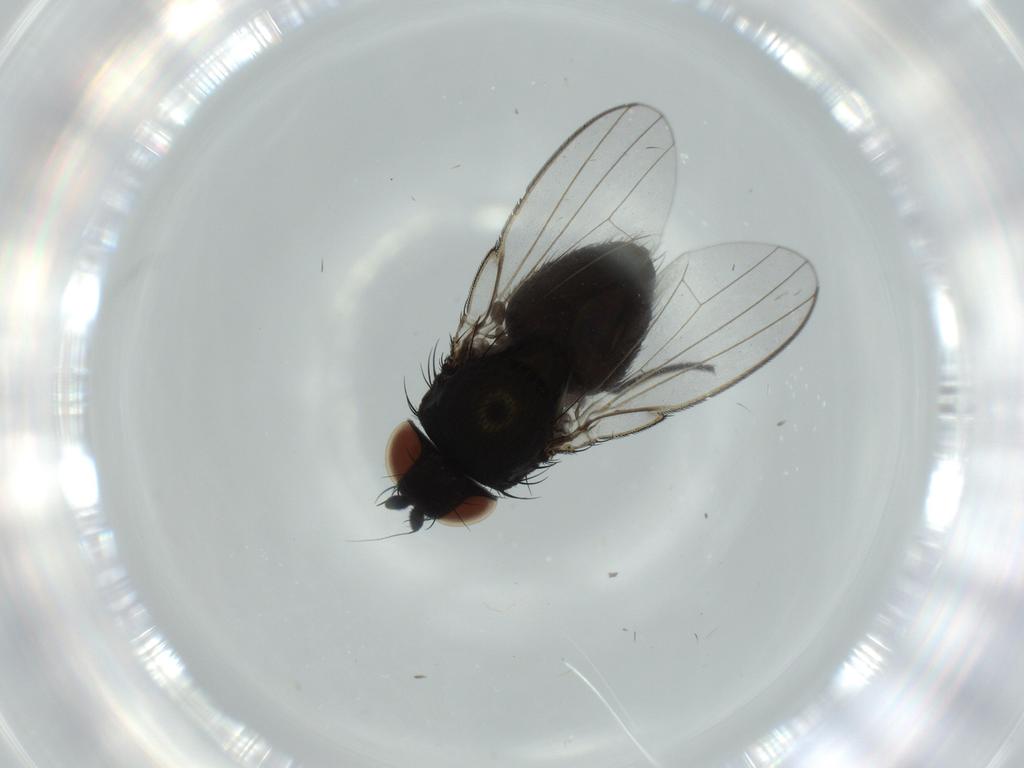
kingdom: Animalia
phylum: Arthropoda
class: Insecta
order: Diptera
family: Milichiidae
